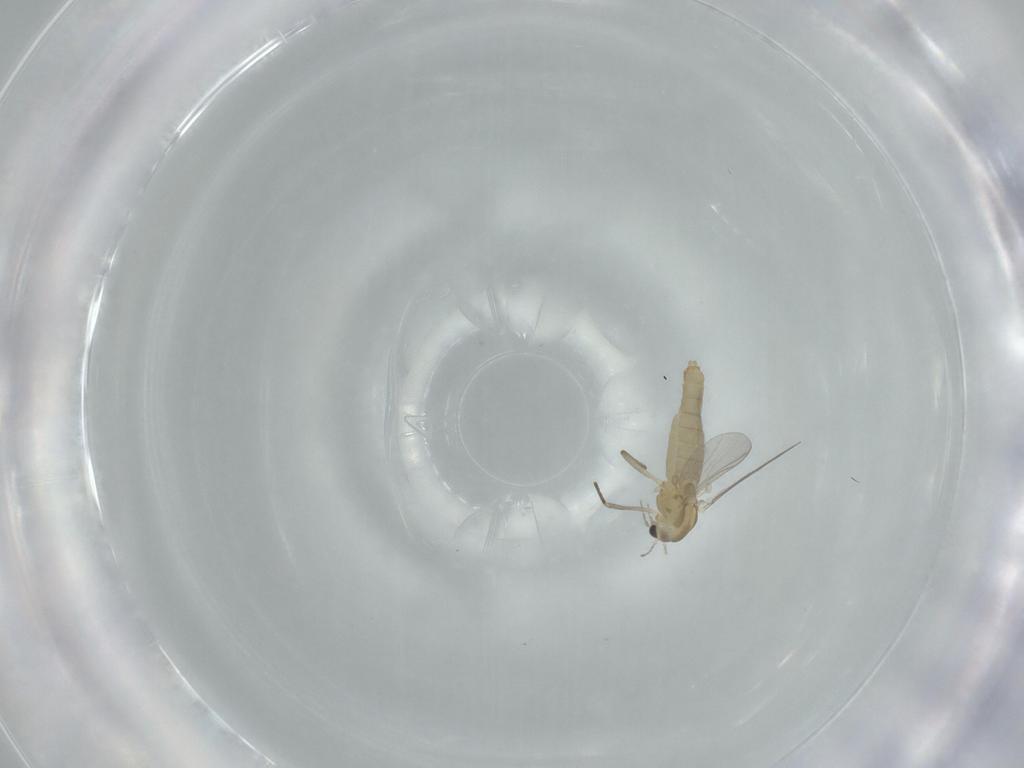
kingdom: Animalia
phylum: Arthropoda
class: Insecta
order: Diptera
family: Chironomidae
